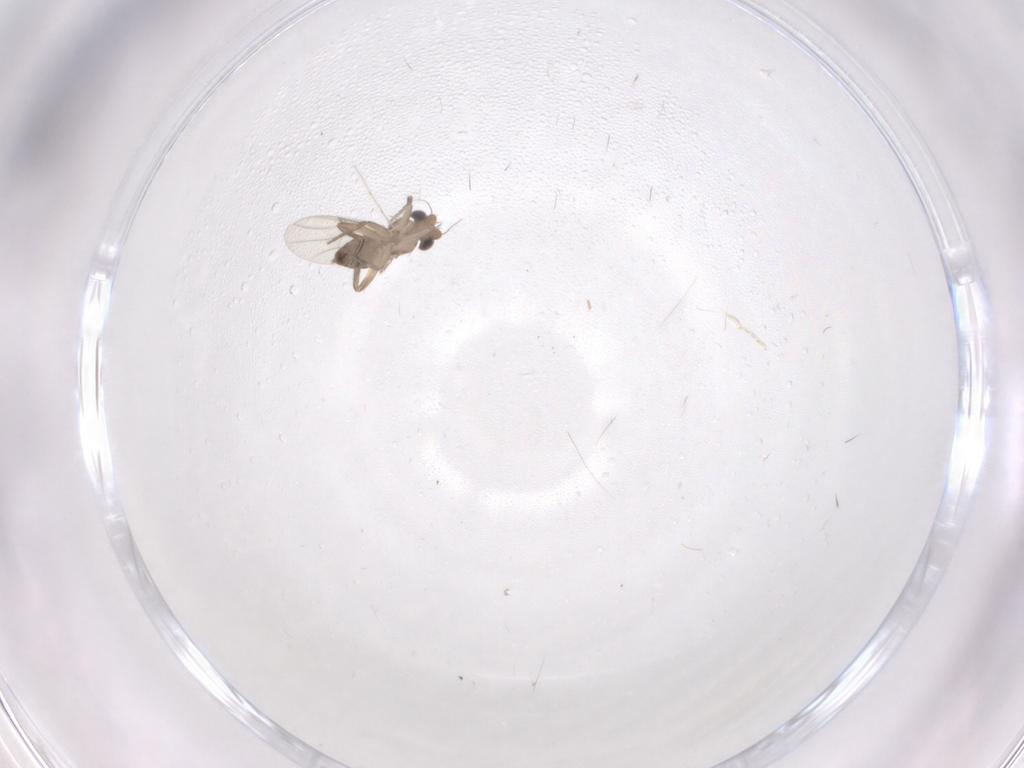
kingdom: Animalia
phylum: Arthropoda
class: Insecta
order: Diptera
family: Phoridae
